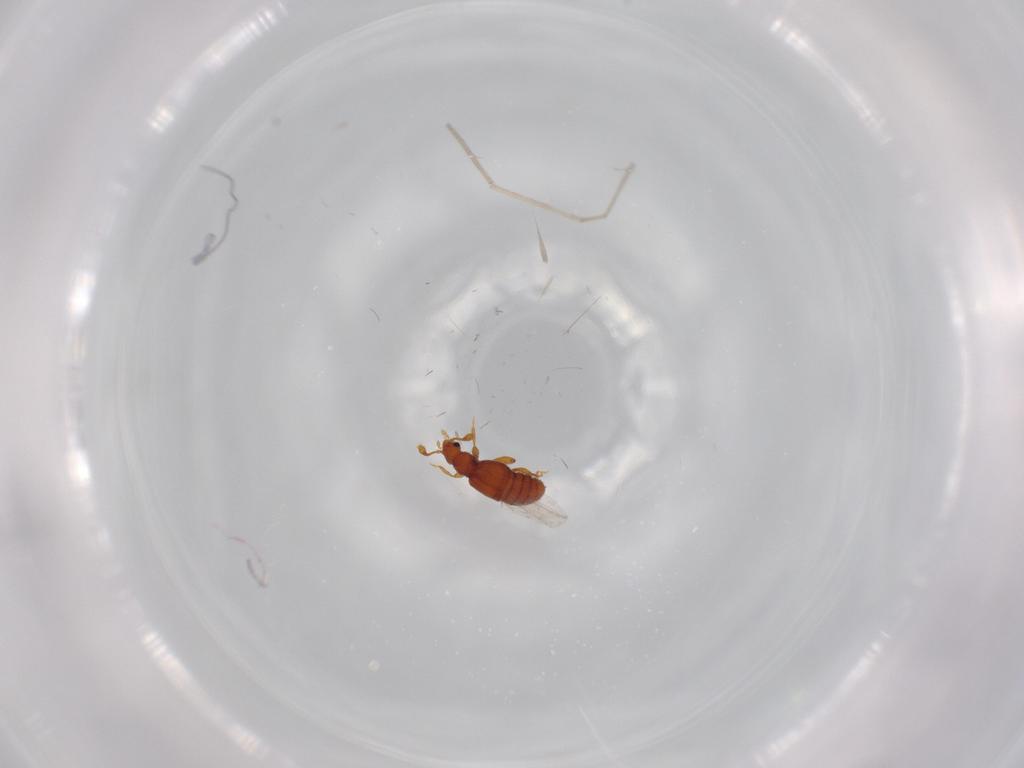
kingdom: Animalia
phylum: Arthropoda
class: Insecta
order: Coleoptera
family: Staphylinidae
